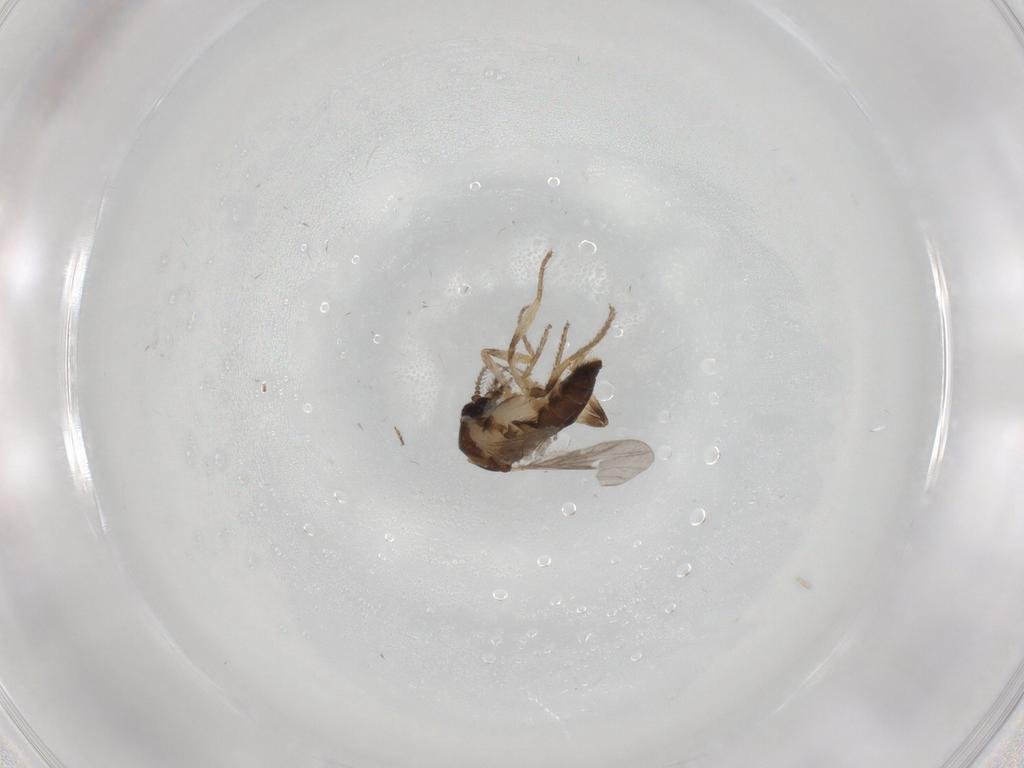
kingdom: Animalia
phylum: Arthropoda
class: Insecta
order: Diptera
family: Ceratopogonidae
